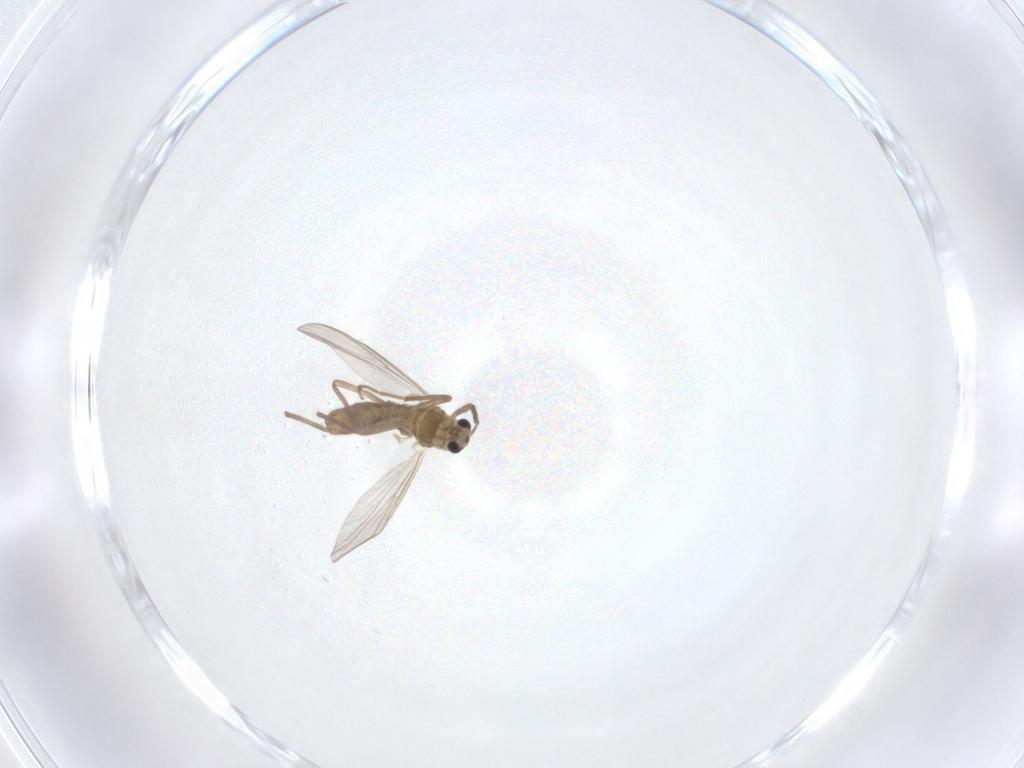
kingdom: Animalia
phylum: Arthropoda
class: Insecta
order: Diptera
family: Chironomidae
